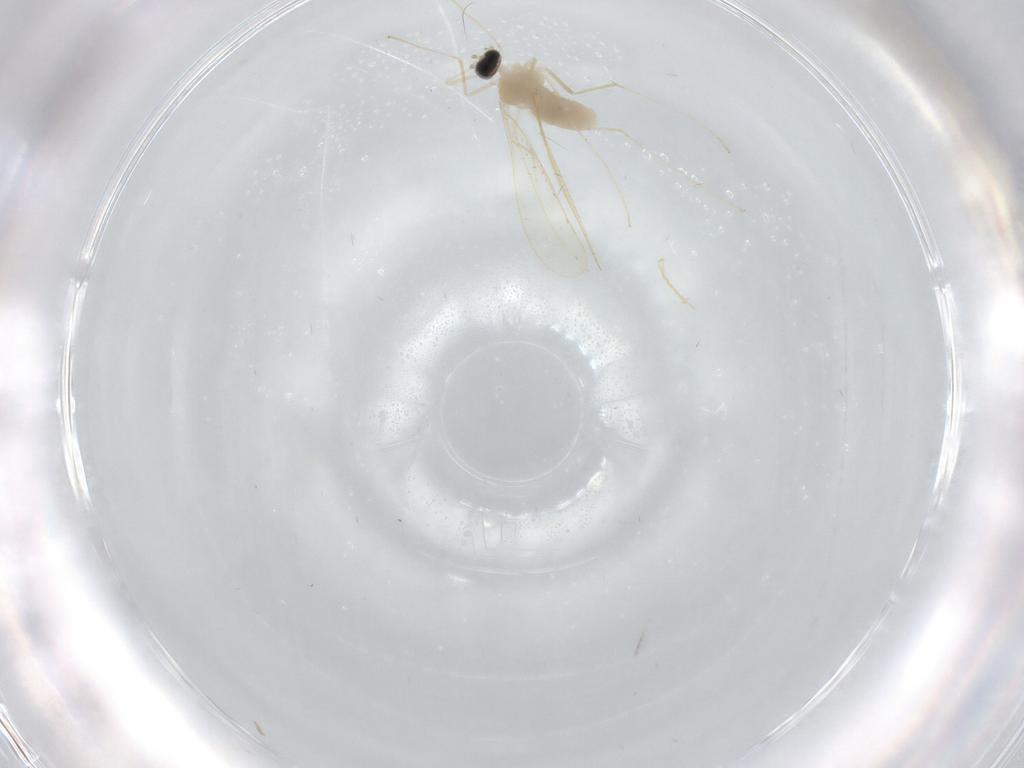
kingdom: Animalia
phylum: Arthropoda
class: Insecta
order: Diptera
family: Cecidomyiidae
